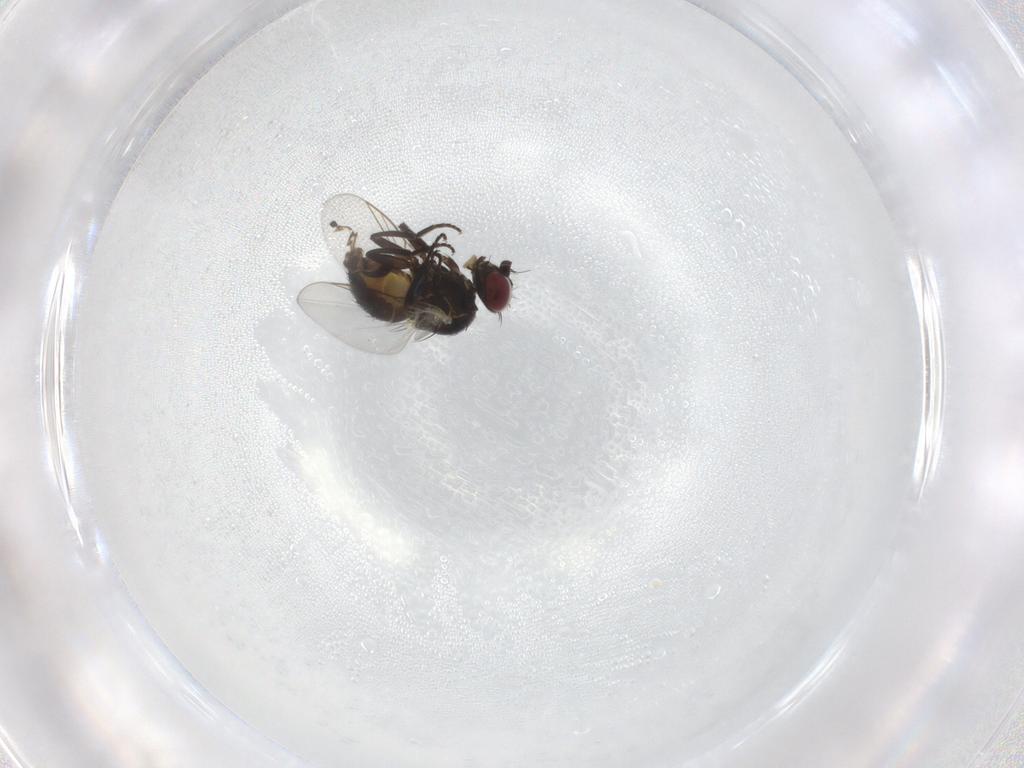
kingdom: Animalia
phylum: Arthropoda
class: Insecta
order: Diptera
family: Agromyzidae
